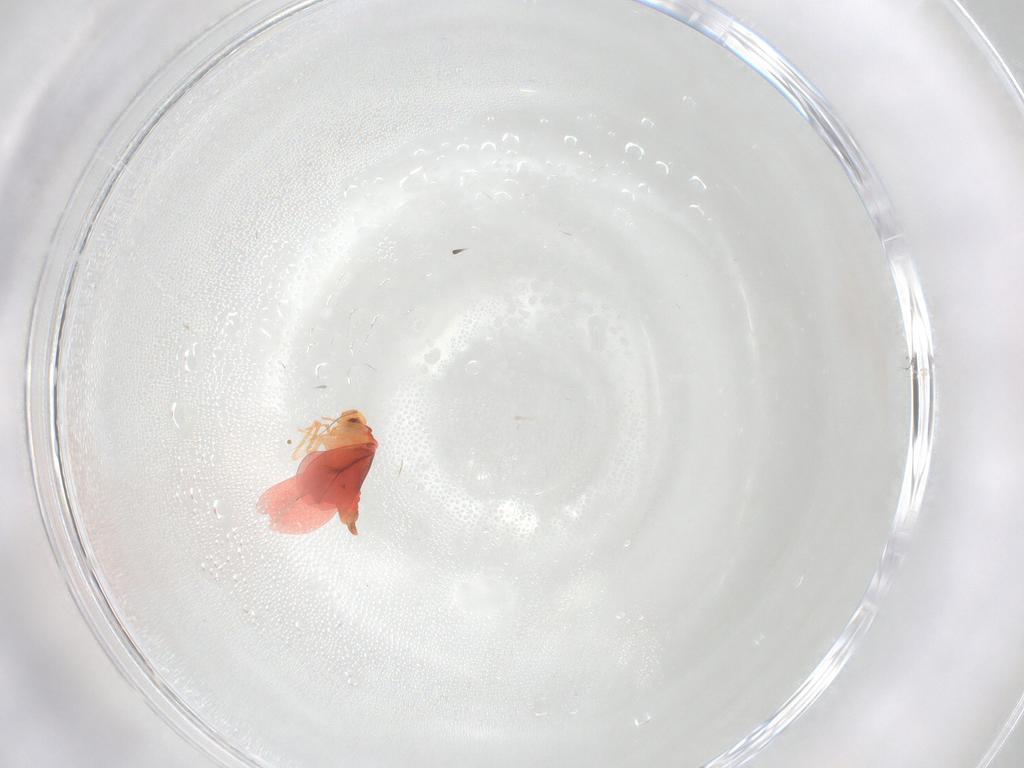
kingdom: Animalia
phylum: Arthropoda
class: Insecta
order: Hemiptera
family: Aleyrodidae
